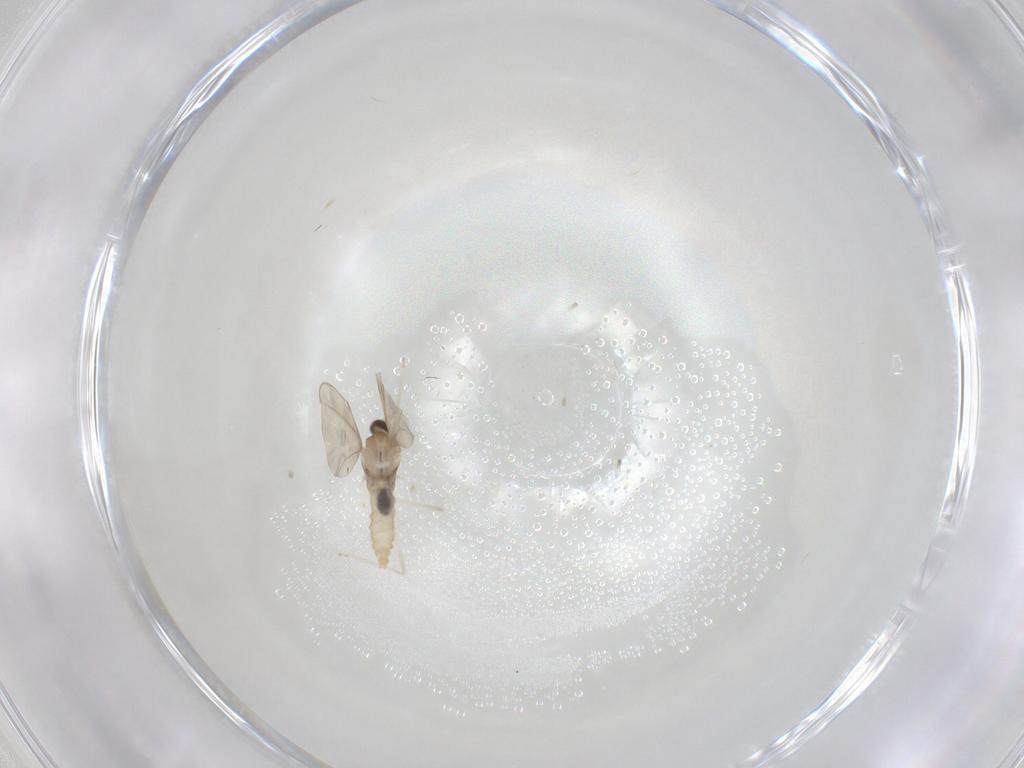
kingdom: Animalia
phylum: Arthropoda
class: Insecta
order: Diptera
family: Cecidomyiidae
